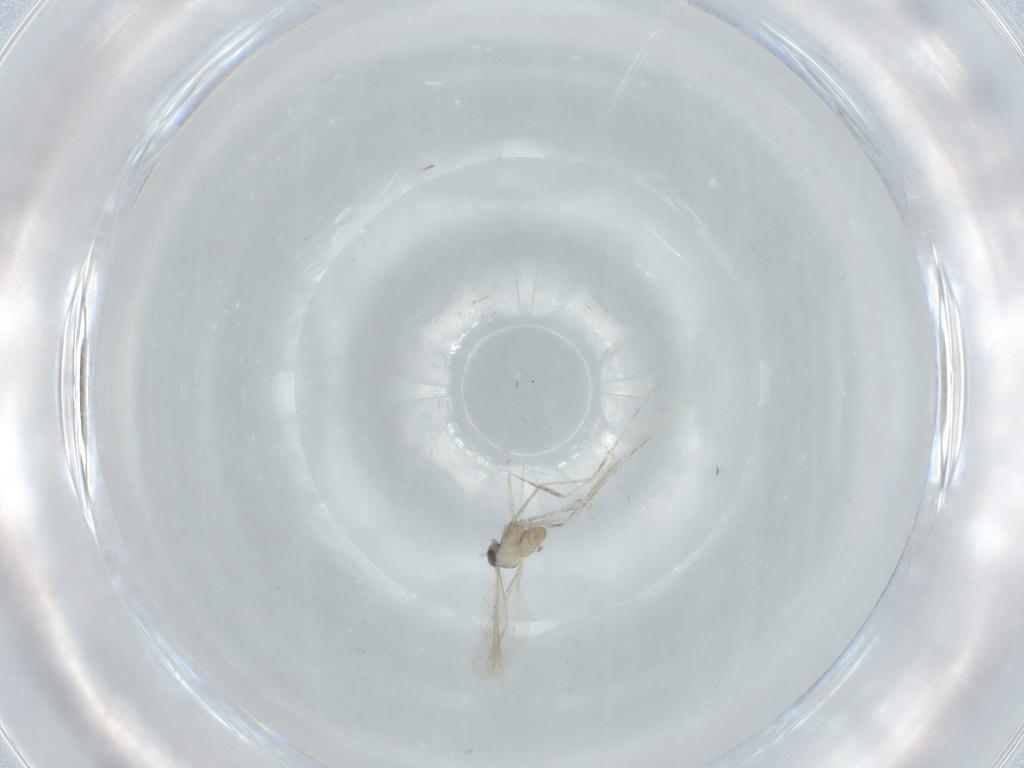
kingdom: Animalia
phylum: Arthropoda
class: Insecta
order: Diptera
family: Cecidomyiidae
